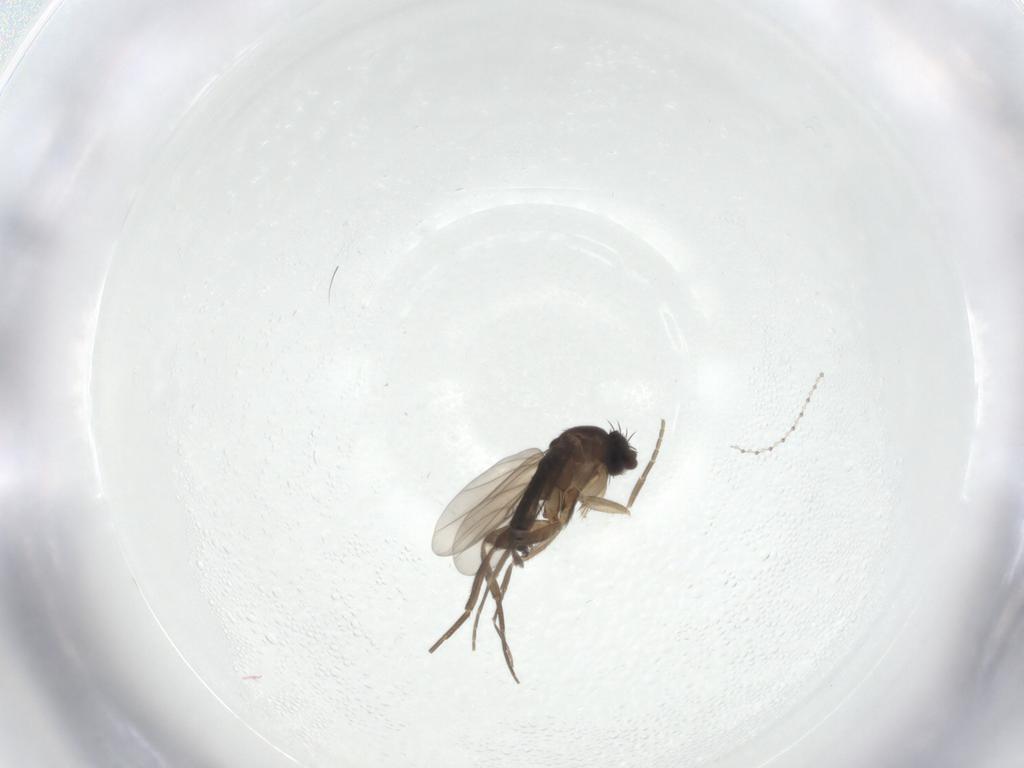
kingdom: Animalia
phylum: Arthropoda
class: Insecta
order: Diptera
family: Phoridae
